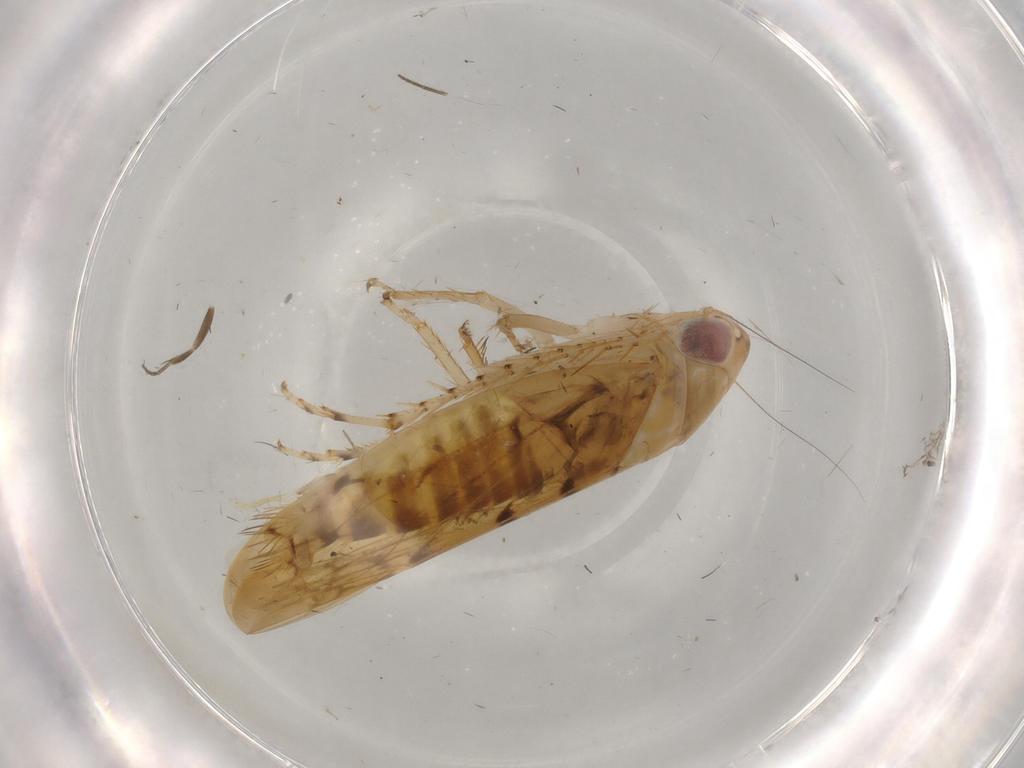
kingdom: Animalia
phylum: Arthropoda
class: Insecta
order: Hemiptera
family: Cicadellidae
